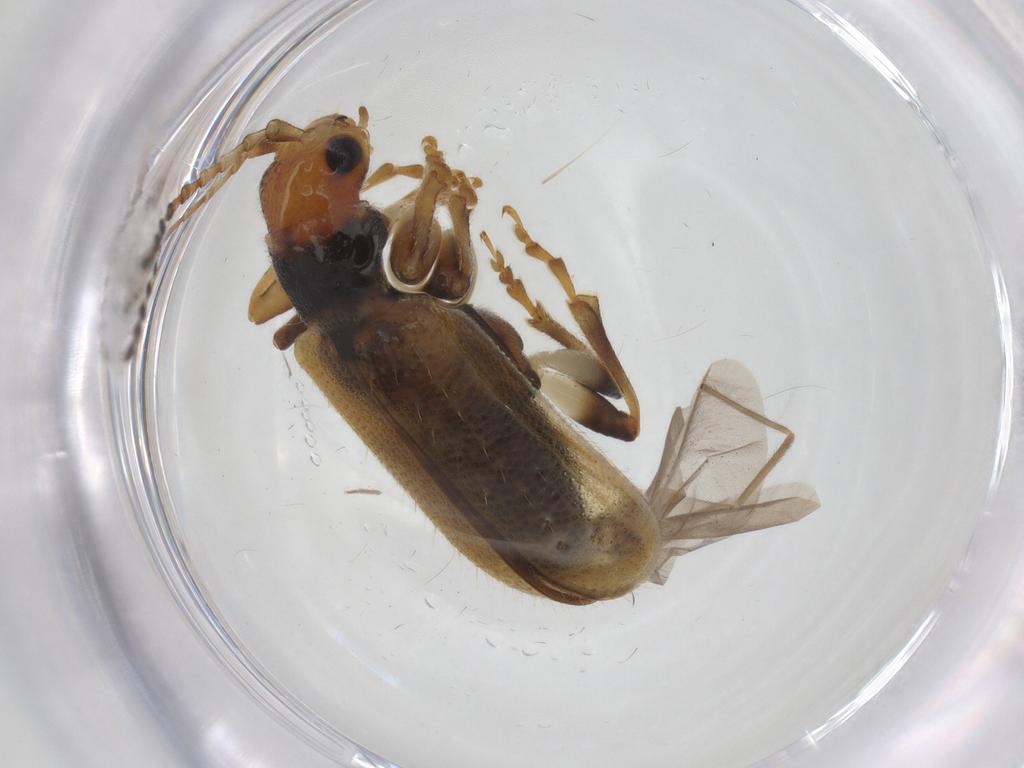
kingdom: Animalia
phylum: Arthropoda
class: Insecta
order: Coleoptera
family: Chrysomelidae
